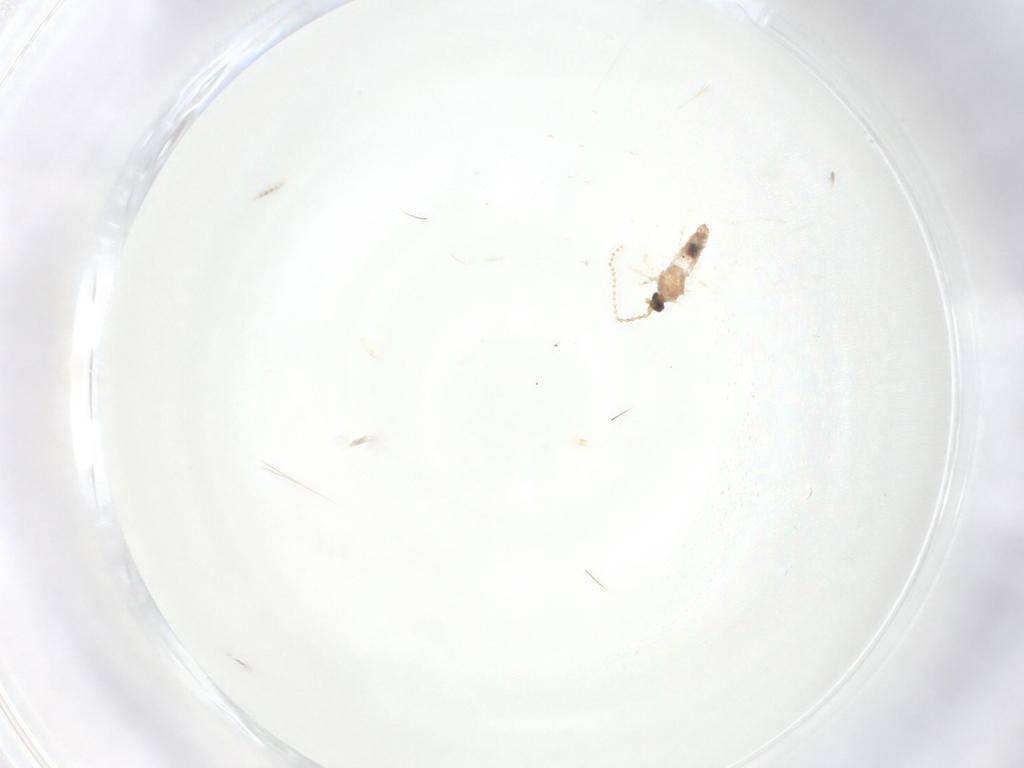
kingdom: Animalia
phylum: Arthropoda
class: Insecta
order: Diptera
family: Cecidomyiidae
